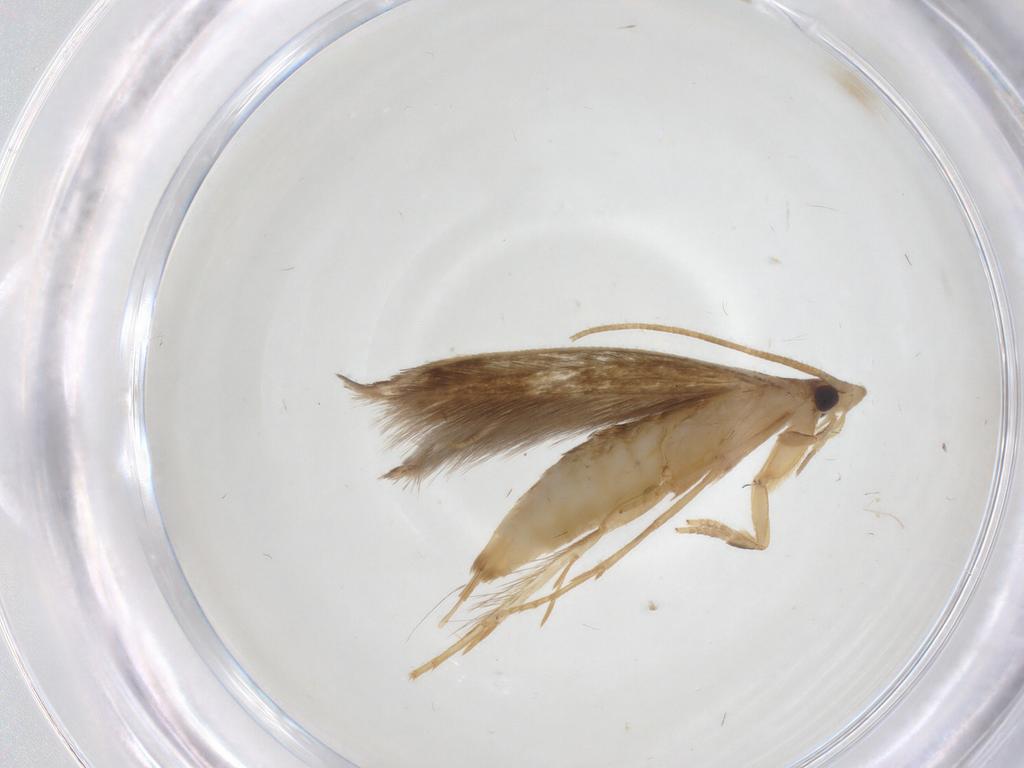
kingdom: Animalia
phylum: Arthropoda
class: Insecta
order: Lepidoptera
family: Tineidae
